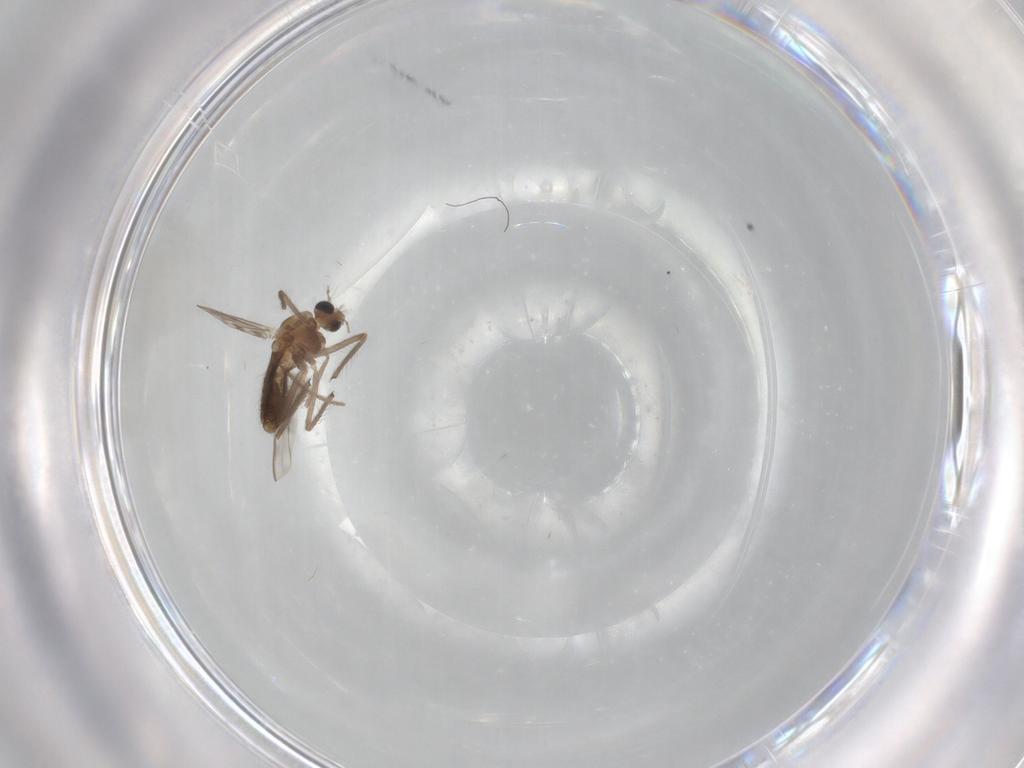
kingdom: Animalia
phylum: Arthropoda
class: Insecta
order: Diptera
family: Chironomidae
